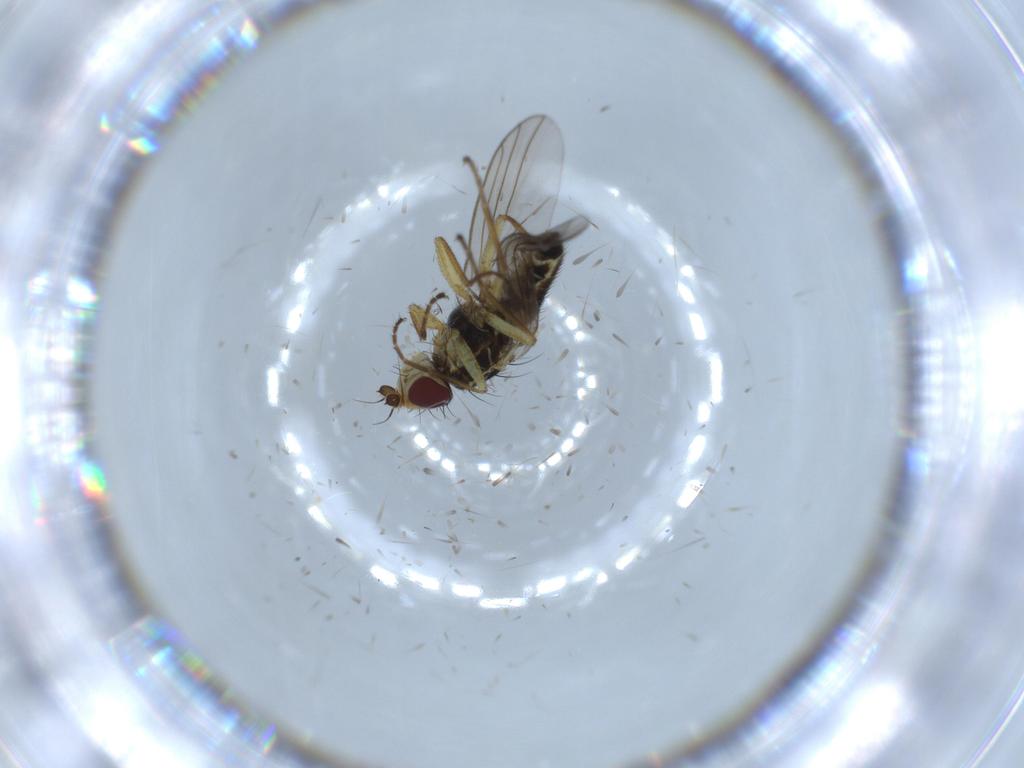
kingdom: Animalia
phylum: Arthropoda
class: Insecta
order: Diptera
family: Agromyzidae
